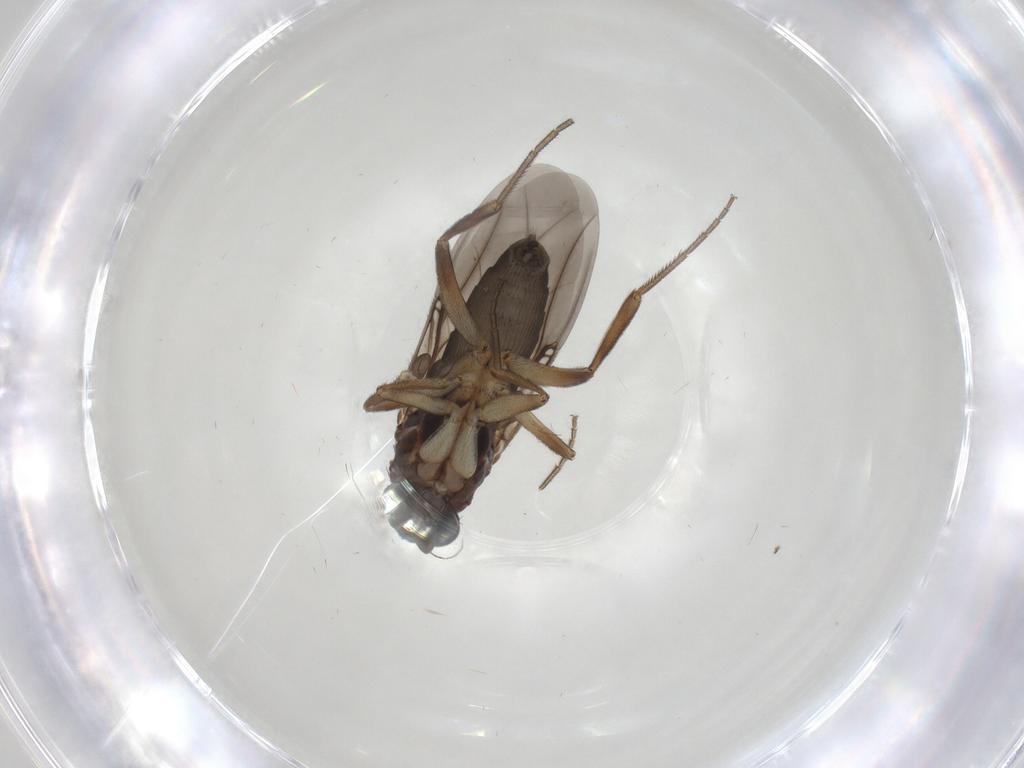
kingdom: Animalia
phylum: Arthropoda
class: Insecta
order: Diptera
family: Phoridae
